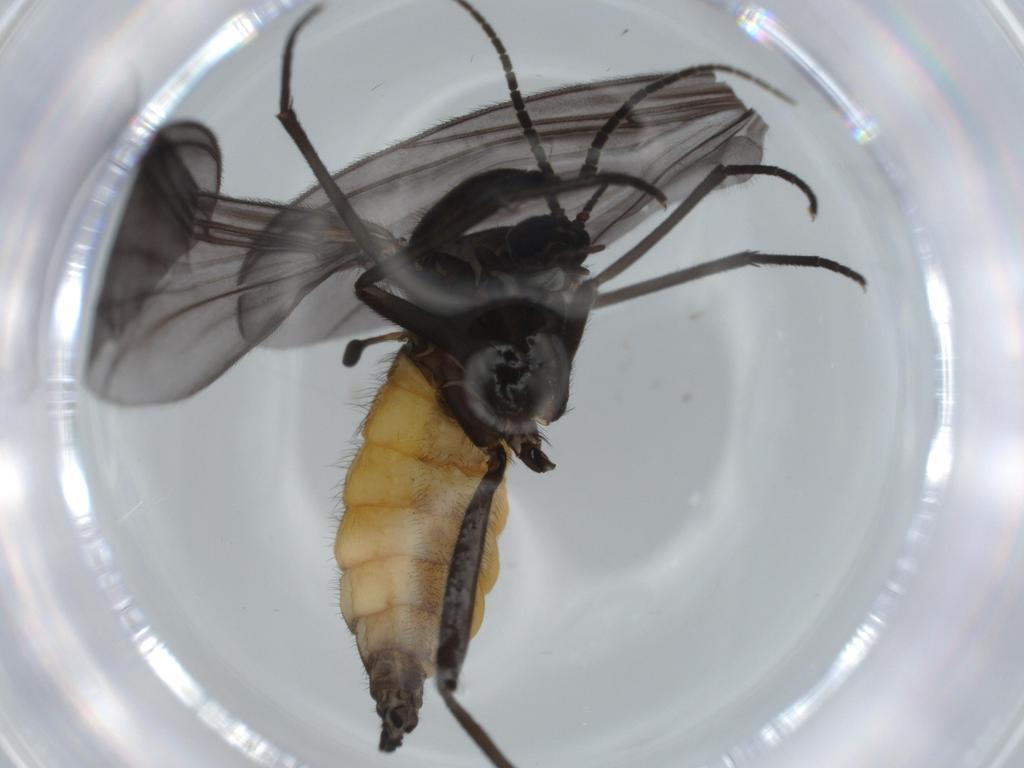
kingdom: Animalia
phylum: Arthropoda
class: Insecta
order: Diptera
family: Sciaridae
